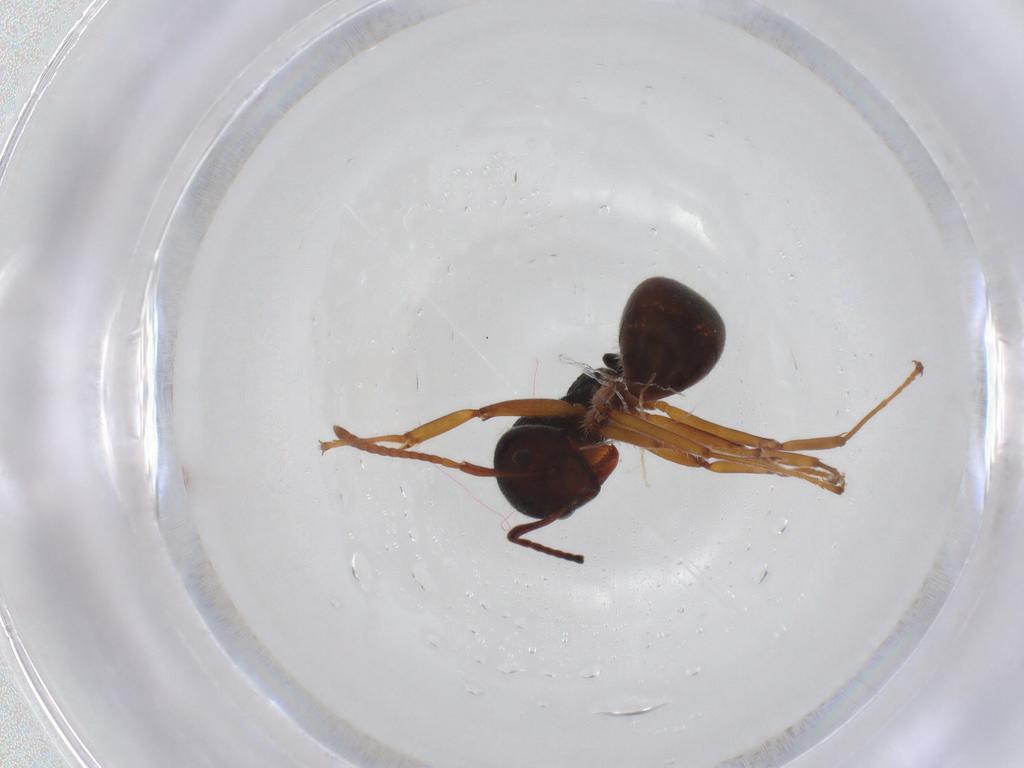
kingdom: Animalia
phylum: Arthropoda
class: Insecta
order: Hymenoptera
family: Formicidae
